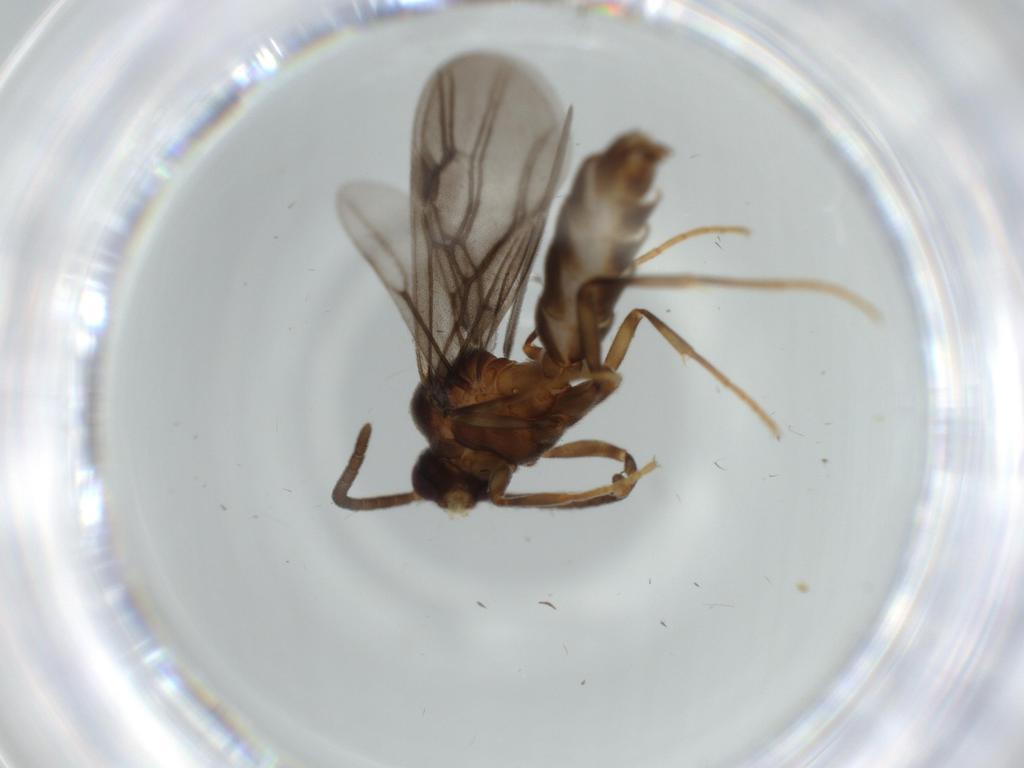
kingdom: Animalia
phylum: Arthropoda
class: Insecta
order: Hymenoptera
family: Formicidae
